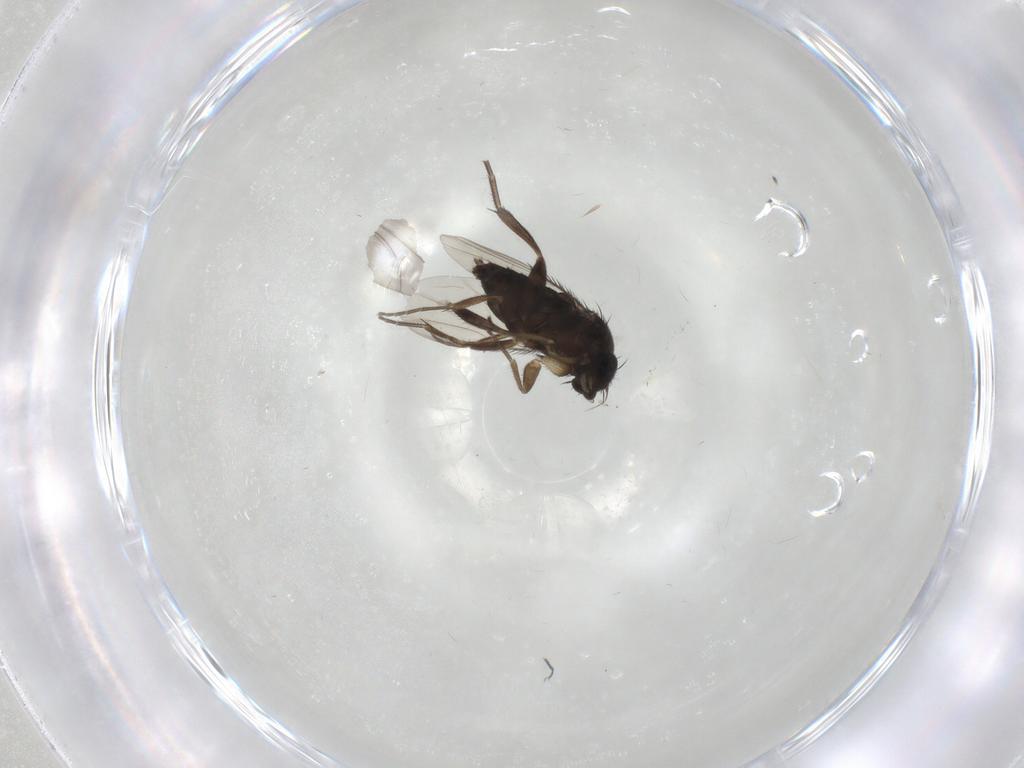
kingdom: Animalia
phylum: Arthropoda
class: Insecta
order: Diptera
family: Phoridae
